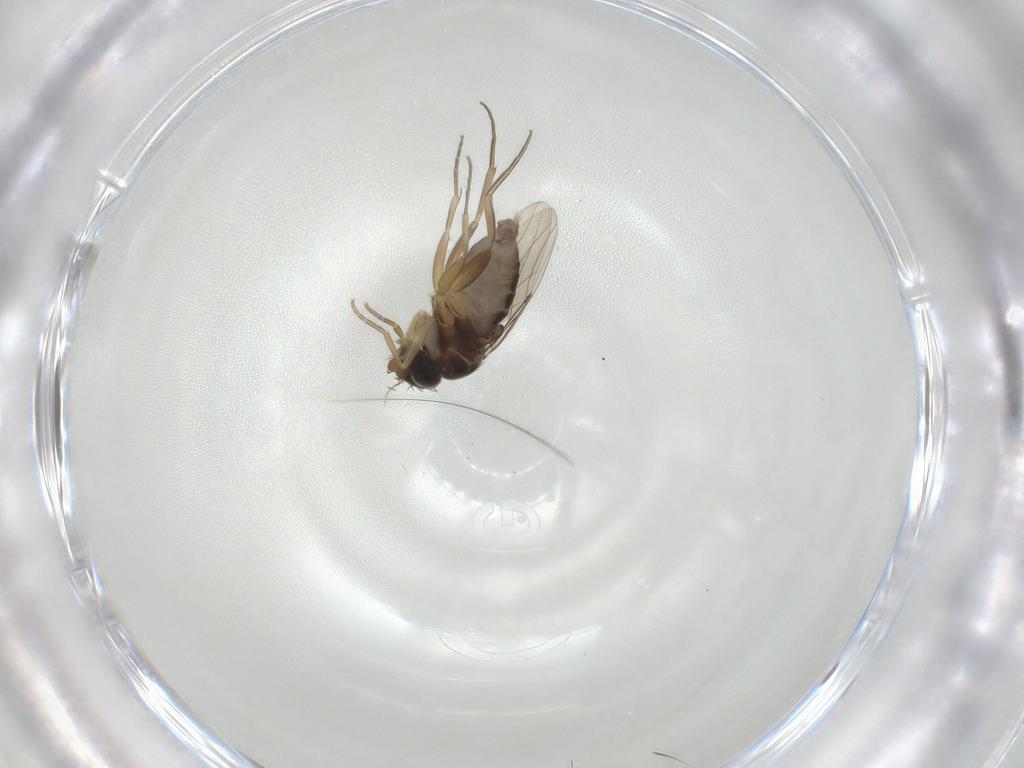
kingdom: Animalia
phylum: Arthropoda
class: Insecta
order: Diptera
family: Phoridae
